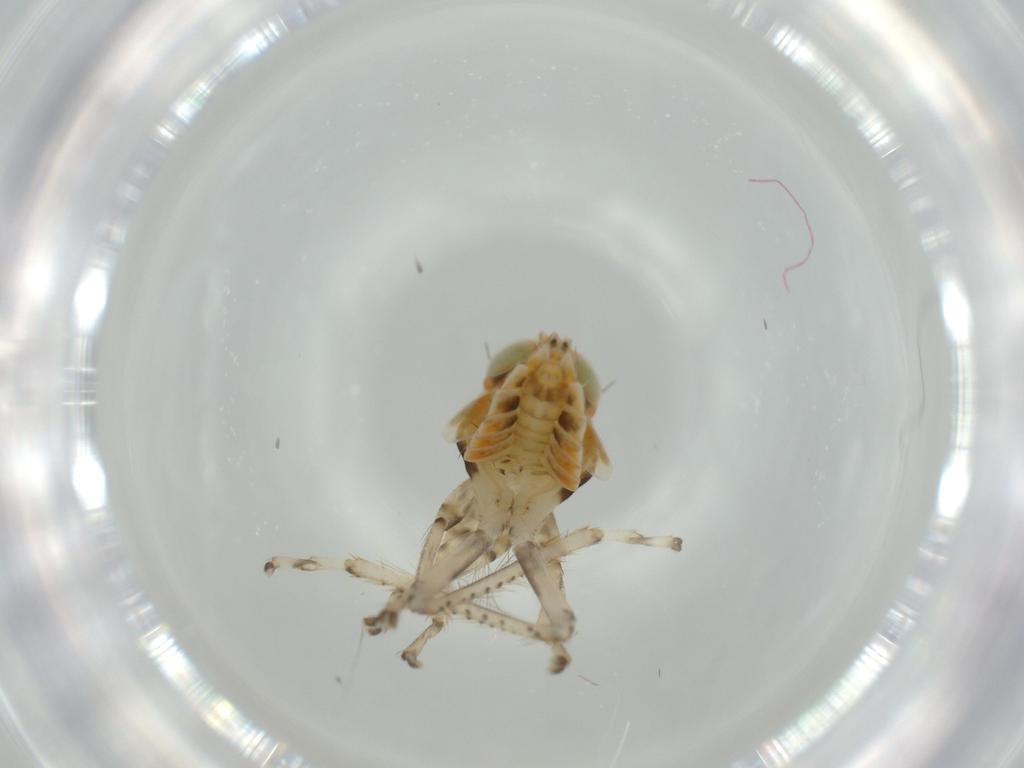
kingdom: Animalia
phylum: Arthropoda
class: Insecta
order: Hemiptera
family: Cicadellidae
